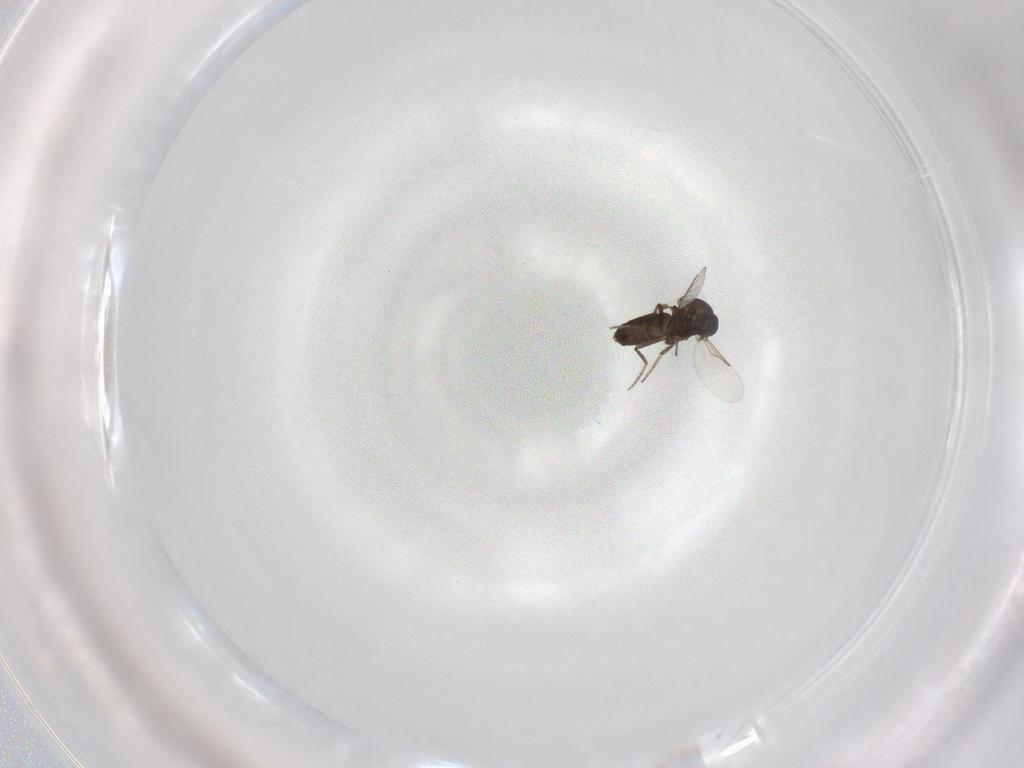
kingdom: Animalia
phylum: Arthropoda
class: Insecta
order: Diptera
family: Ceratopogonidae
